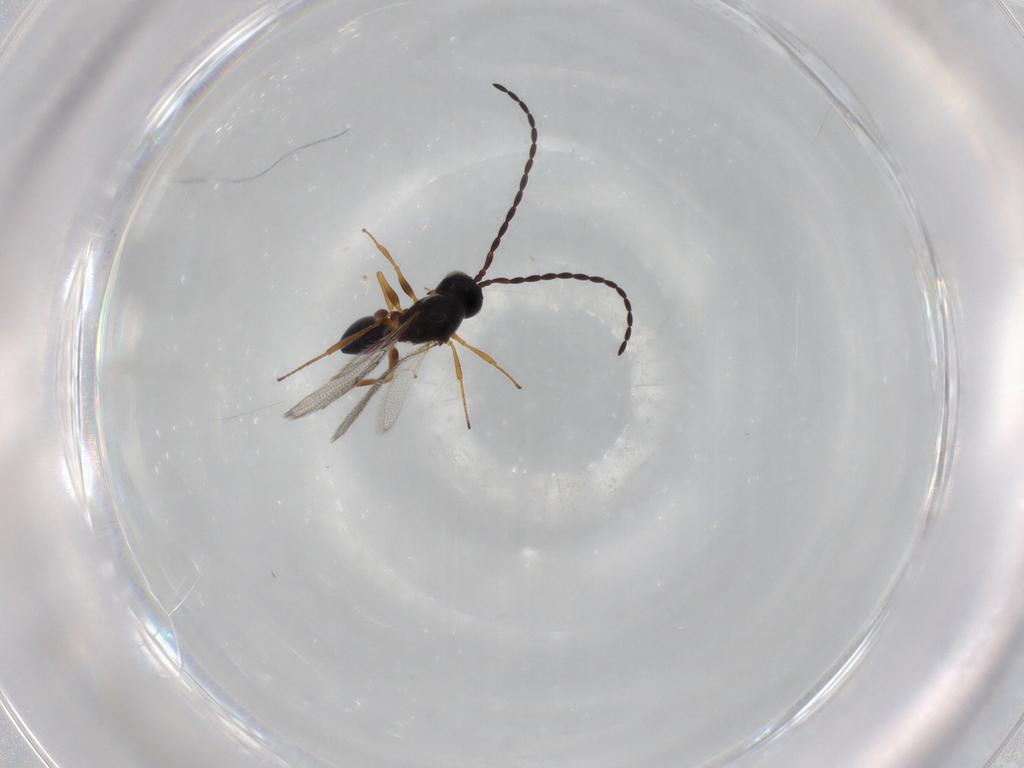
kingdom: Animalia
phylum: Arthropoda
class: Insecta
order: Hymenoptera
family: Figitidae
